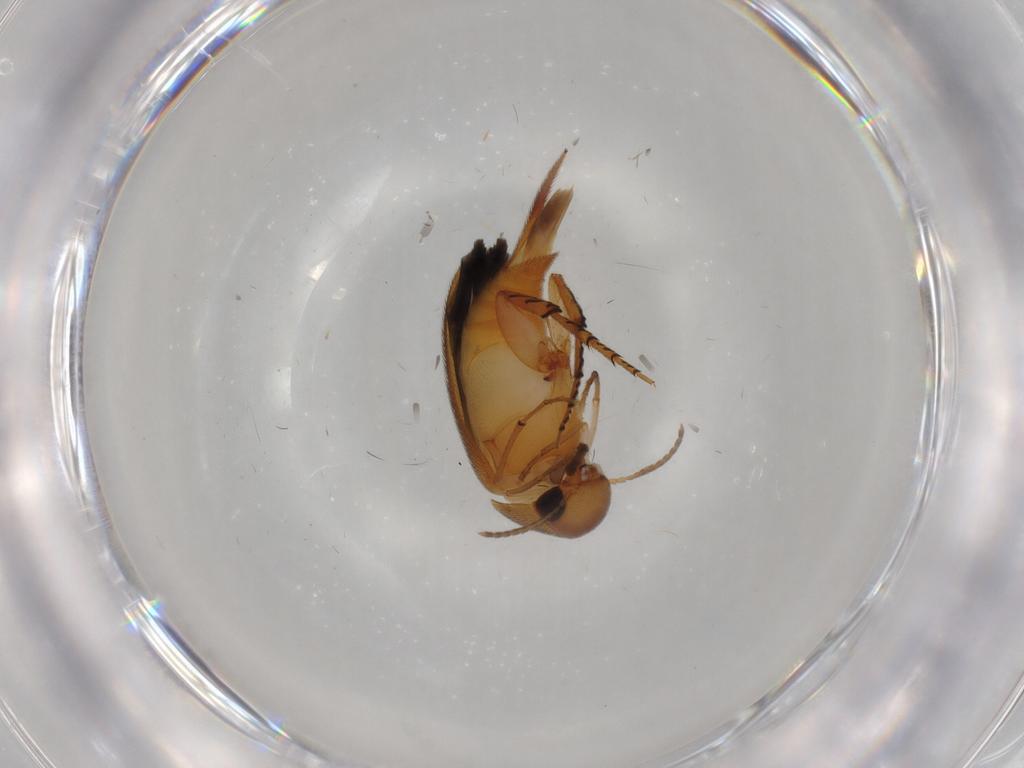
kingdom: Animalia
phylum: Arthropoda
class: Insecta
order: Coleoptera
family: Mordellidae
